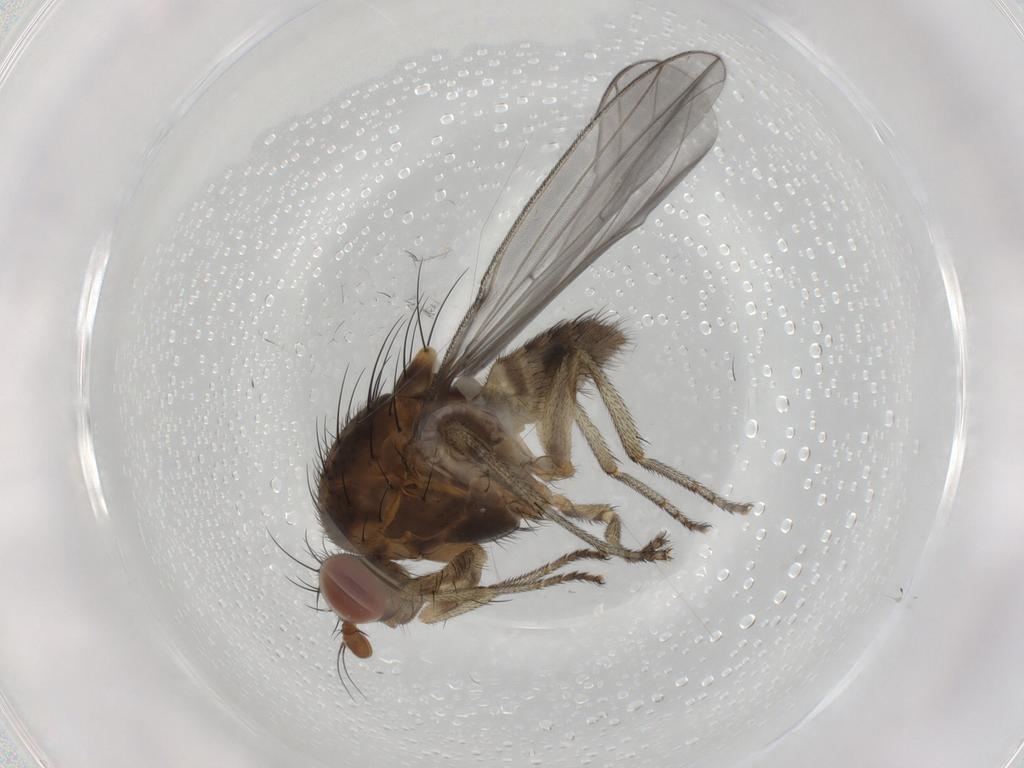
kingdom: Animalia
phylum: Arthropoda
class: Insecta
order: Diptera
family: Lauxaniidae
